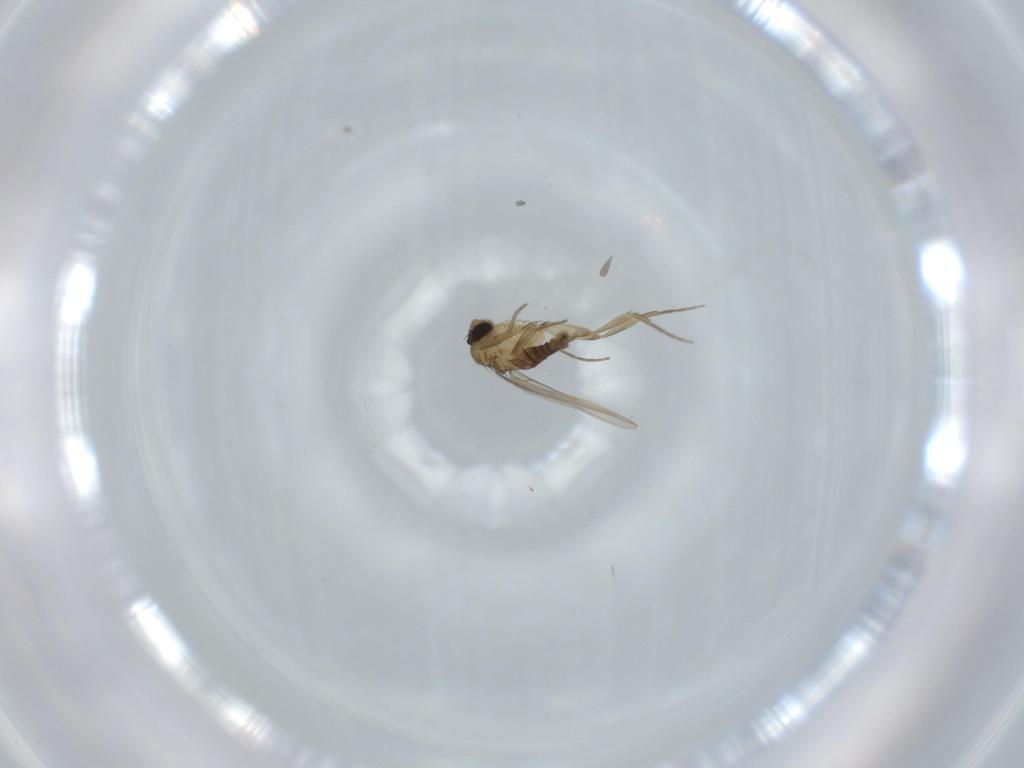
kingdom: Animalia
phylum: Arthropoda
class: Insecta
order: Diptera
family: Phoridae
